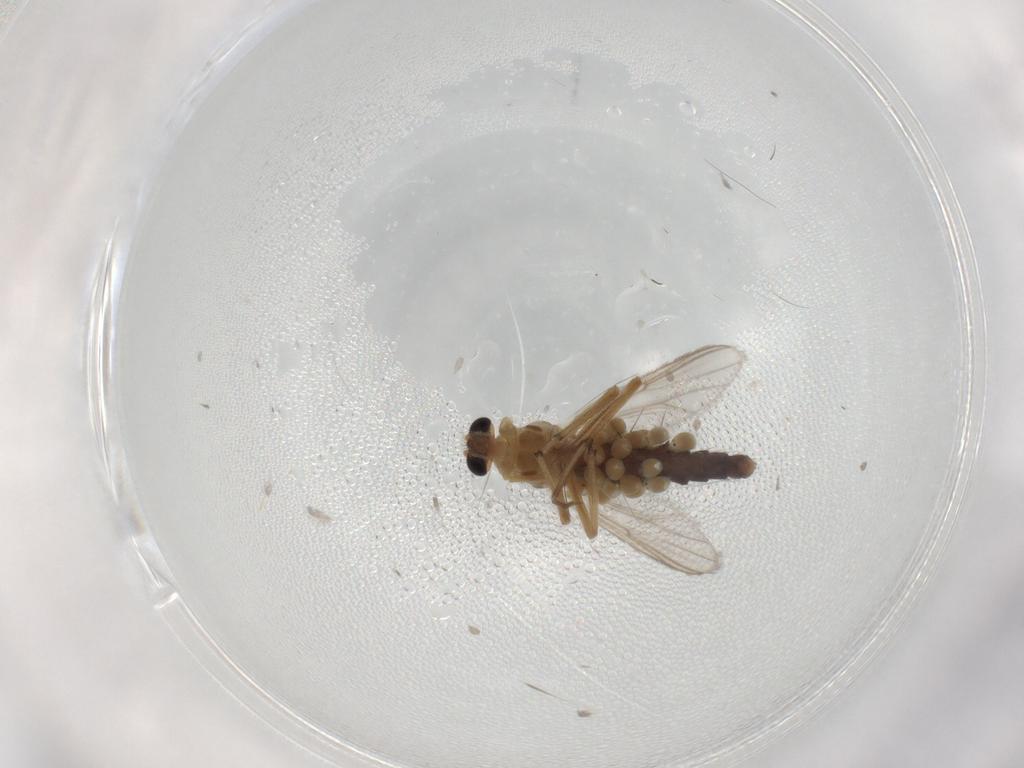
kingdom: Animalia
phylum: Arthropoda
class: Insecta
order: Diptera
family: Chironomidae
